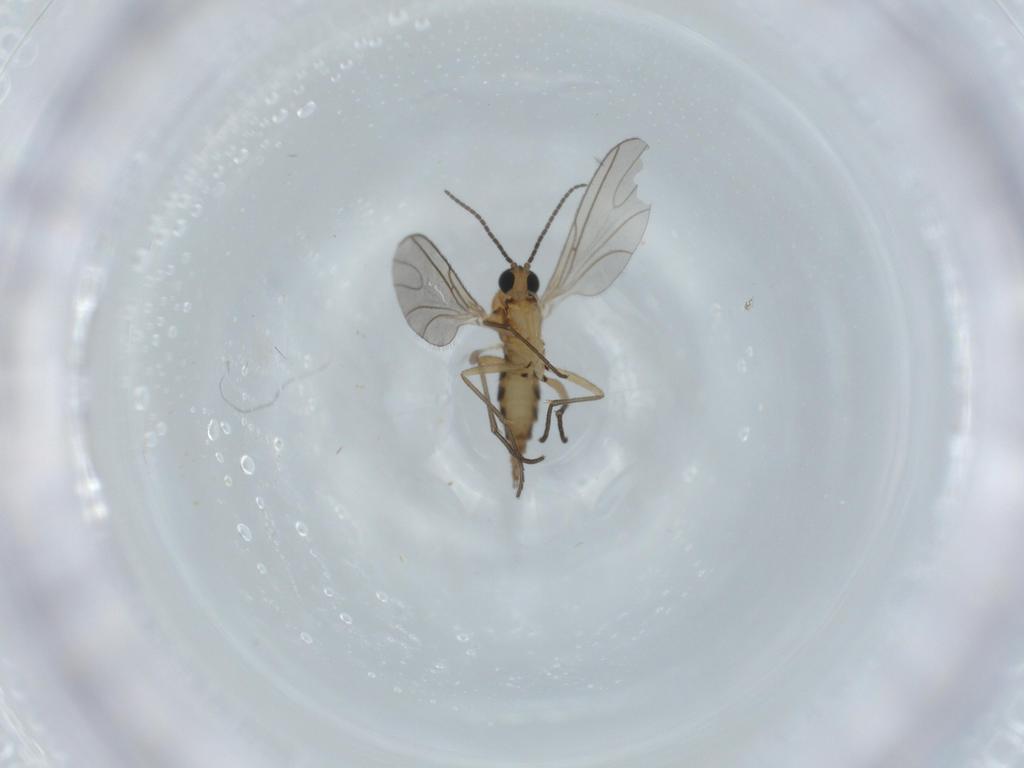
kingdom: Animalia
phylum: Arthropoda
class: Insecta
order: Diptera
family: Sciaridae
